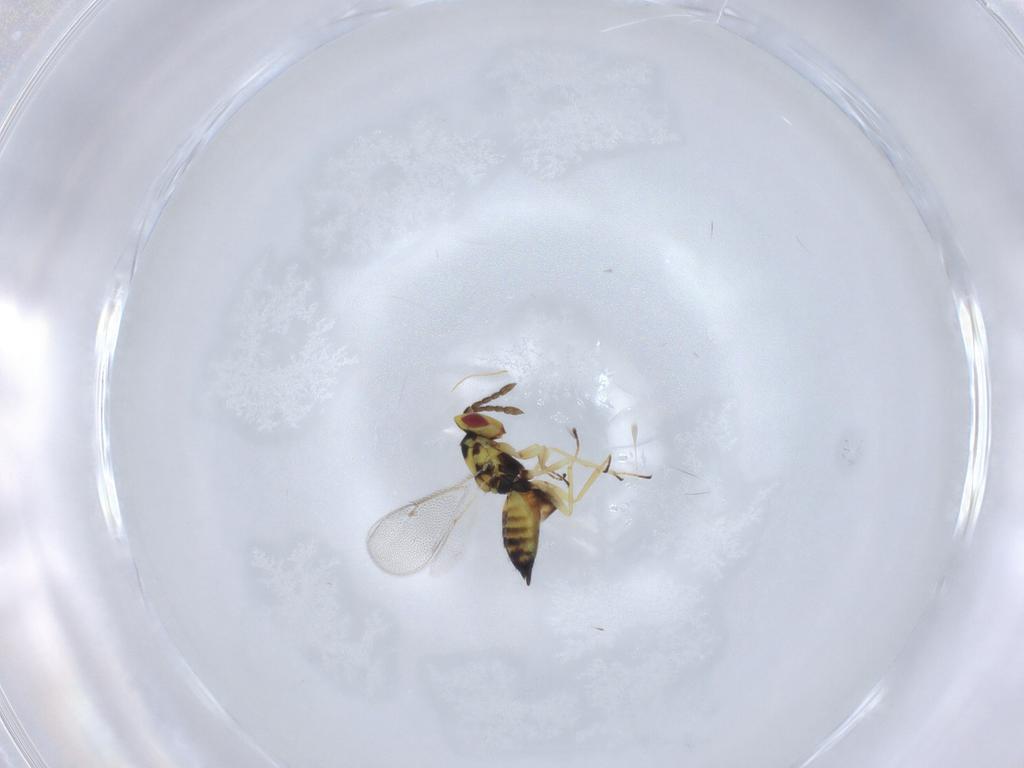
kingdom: Animalia
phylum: Arthropoda
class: Insecta
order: Hymenoptera
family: Eulophidae
